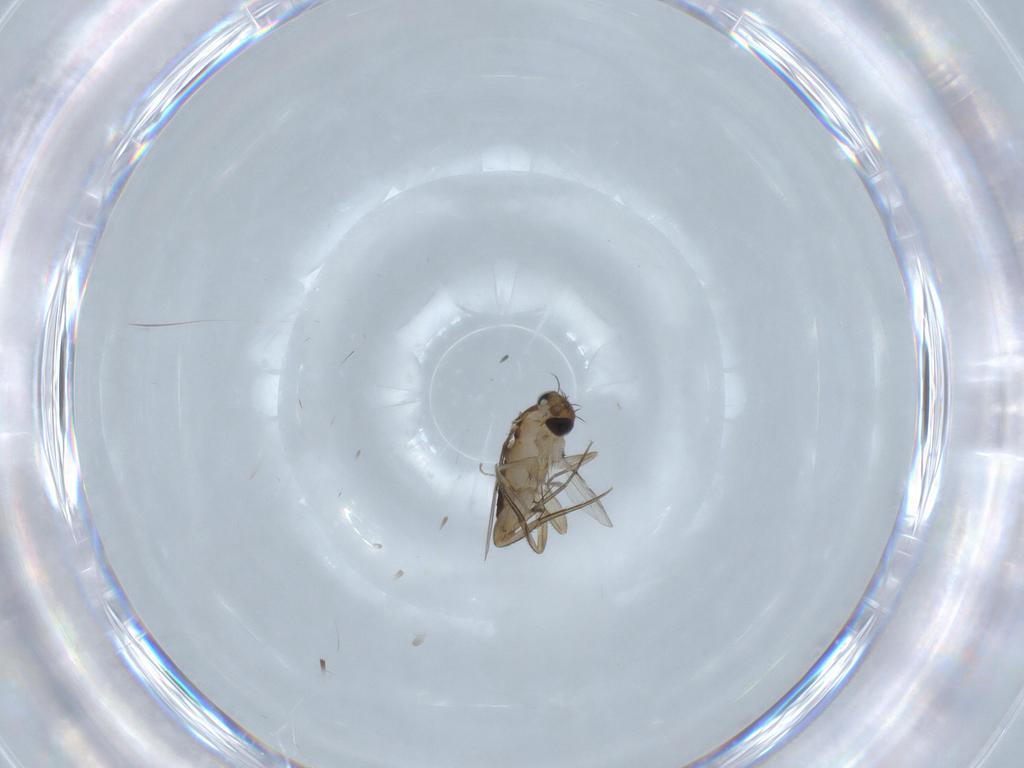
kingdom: Animalia
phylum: Arthropoda
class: Insecta
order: Diptera
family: Phoridae
